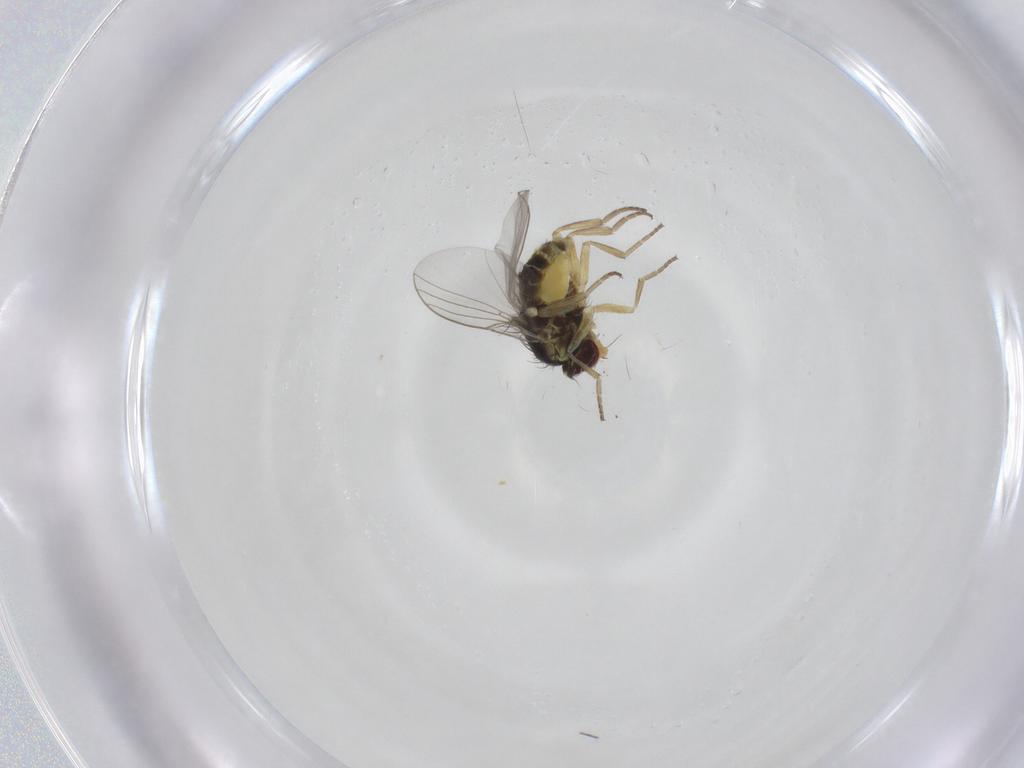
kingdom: Animalia
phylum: Arthropoda
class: Insecta
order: Diptera
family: Agromyzidae
